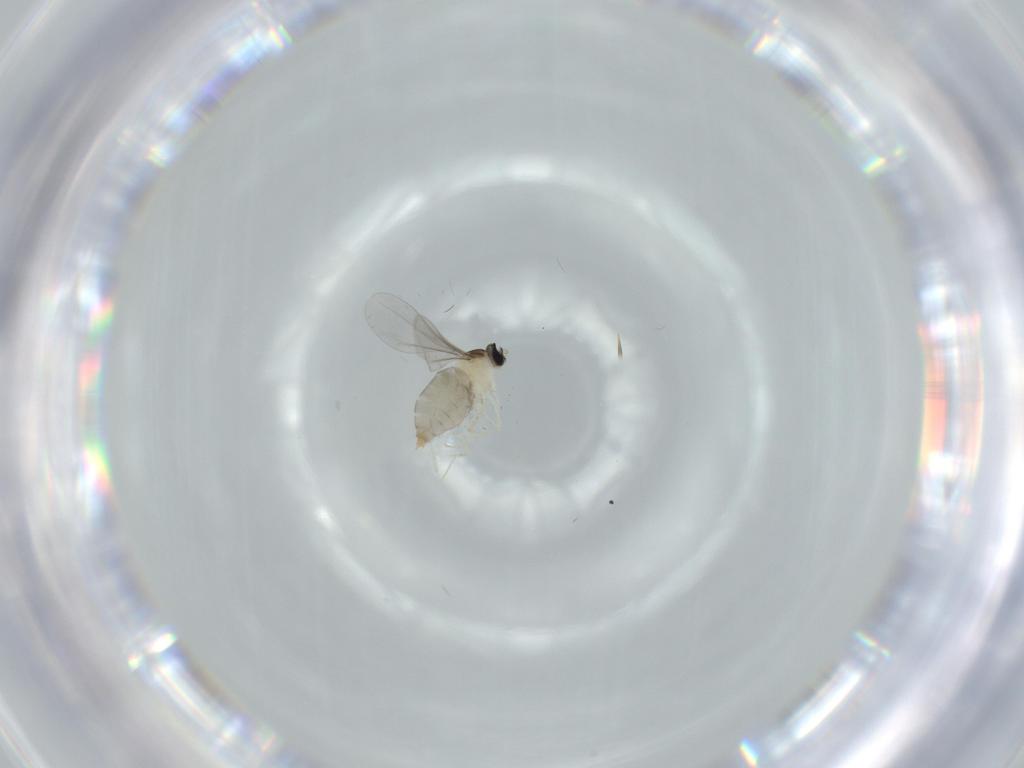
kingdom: Animalia
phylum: Arthropoda
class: Insecta
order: Diptera
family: Cecidomyiidae
